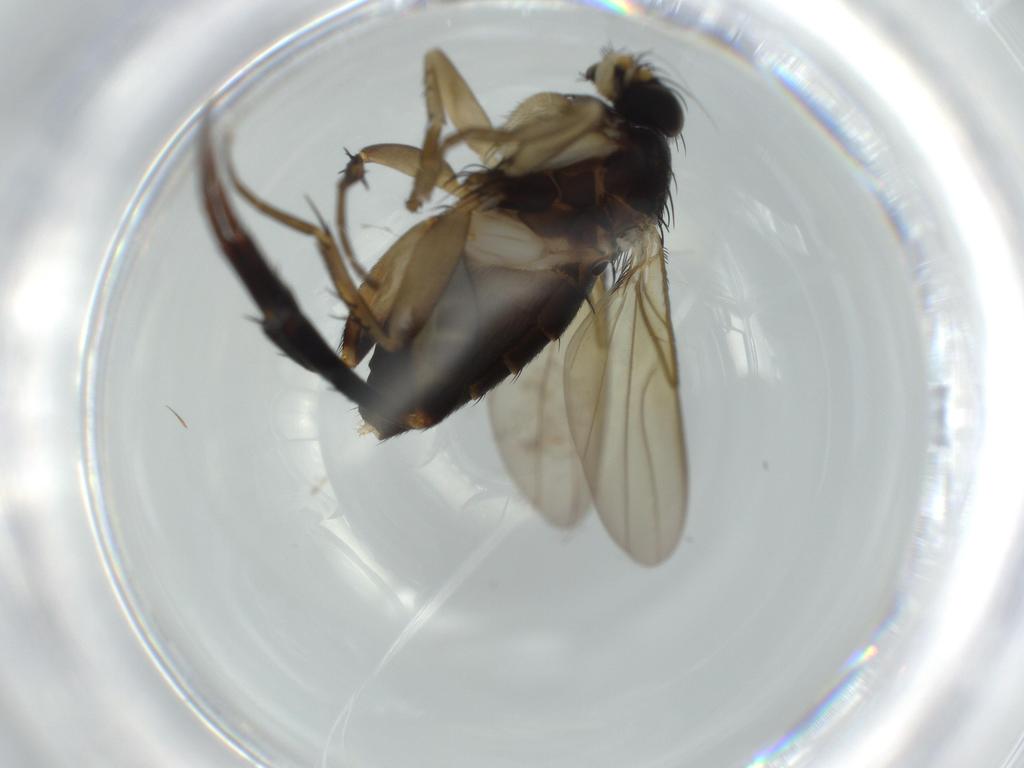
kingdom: Animalia
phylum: Arthropoda
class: Insecta
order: Diptera
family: Phoridae
